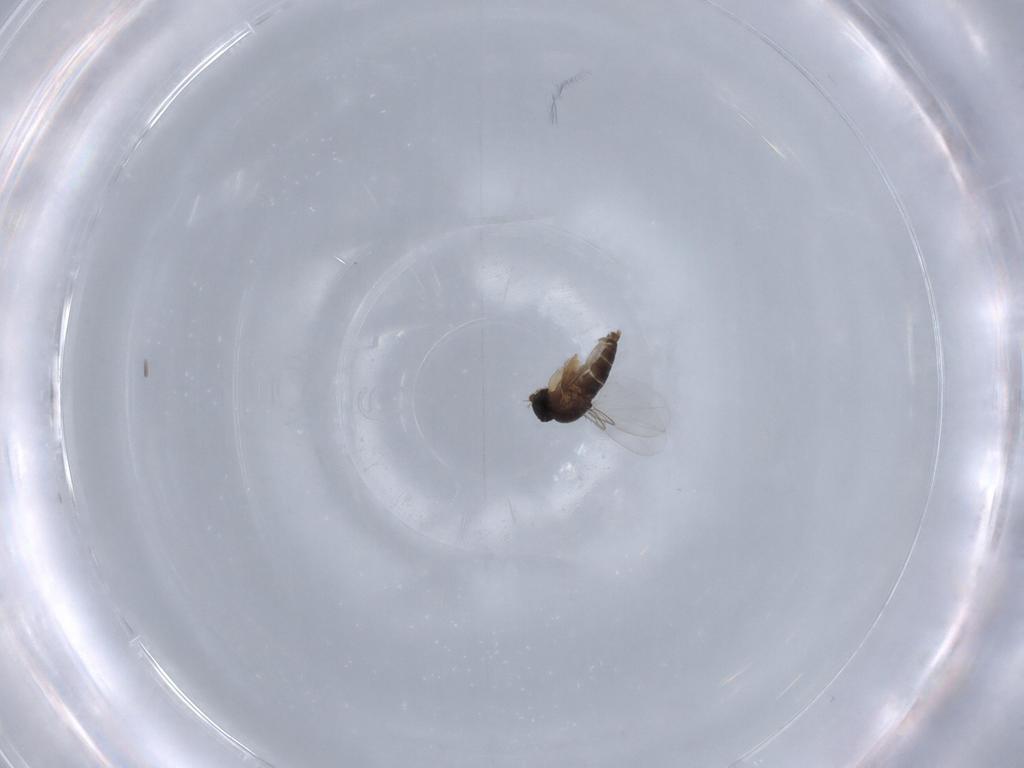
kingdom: Animalia
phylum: Arthropoda
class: Insecta
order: Diptera
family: Phoridae
